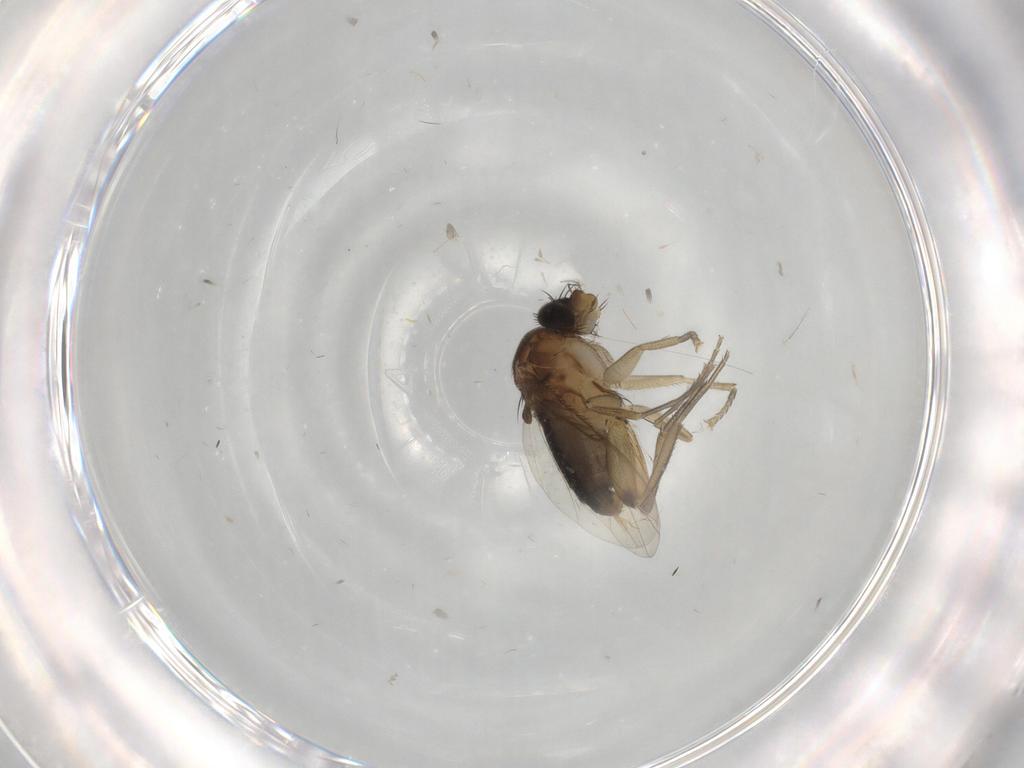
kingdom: Animalia
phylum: Arthropoda
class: Insecta
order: Diptera
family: Phoridae
